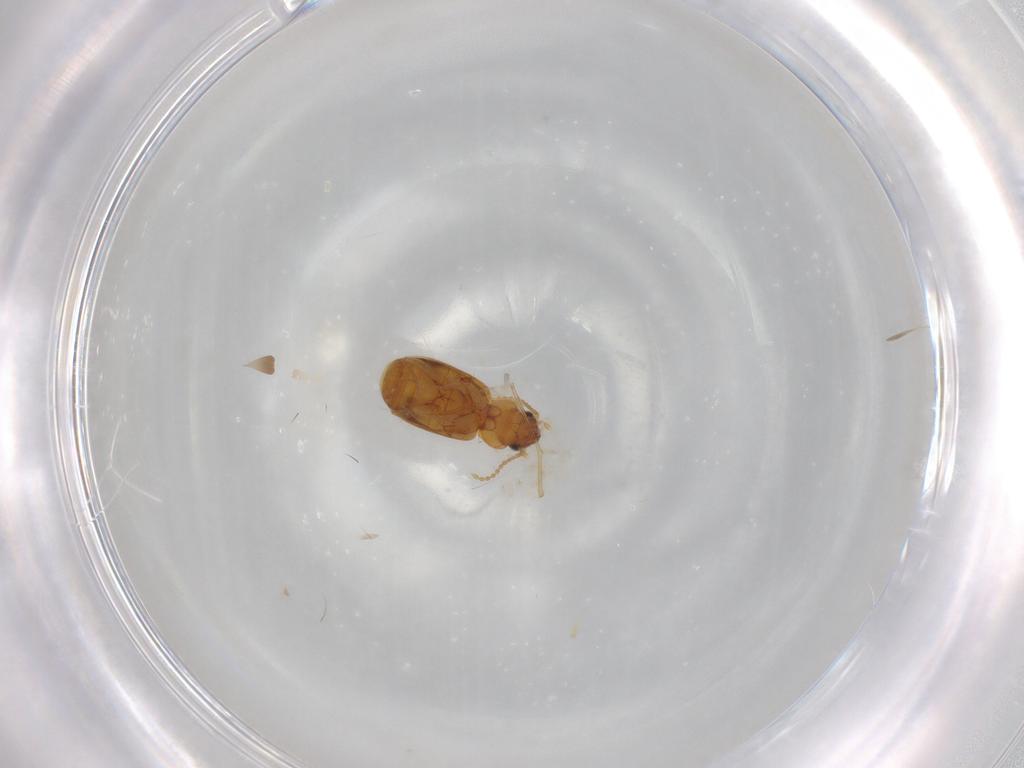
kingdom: Animalia
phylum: Arthropoda
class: Insecta
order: Coleoptera
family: Carabidae
